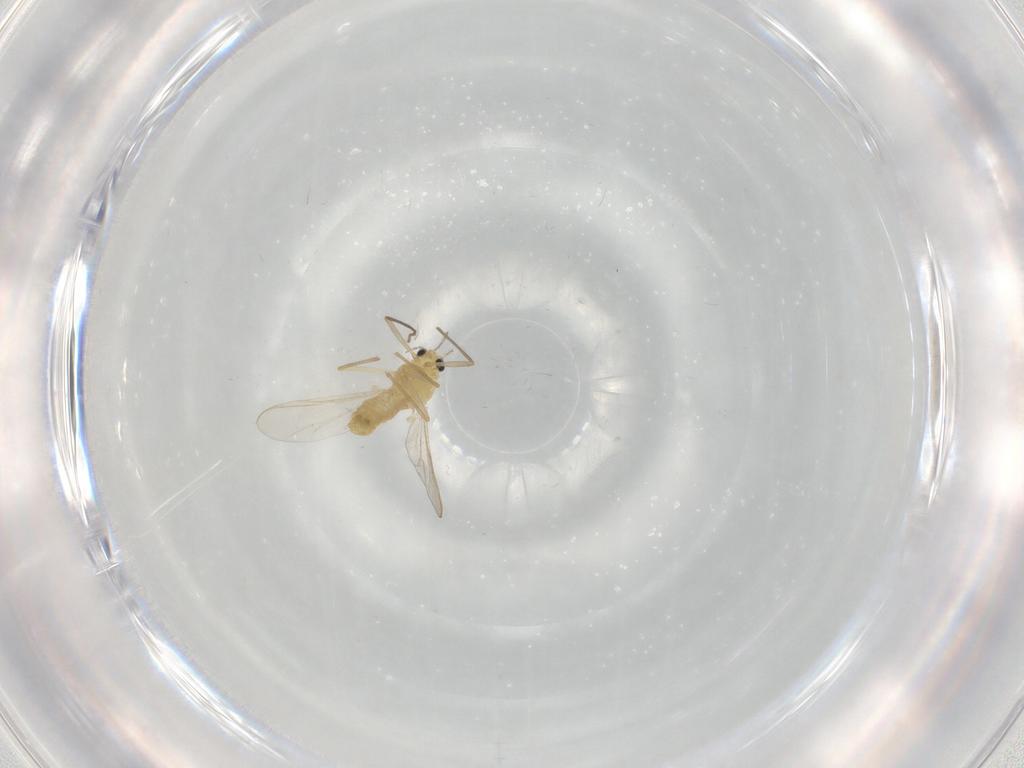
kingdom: Animalia
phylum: Arthropoda
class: Insecta
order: Diptera
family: Chironomidae
